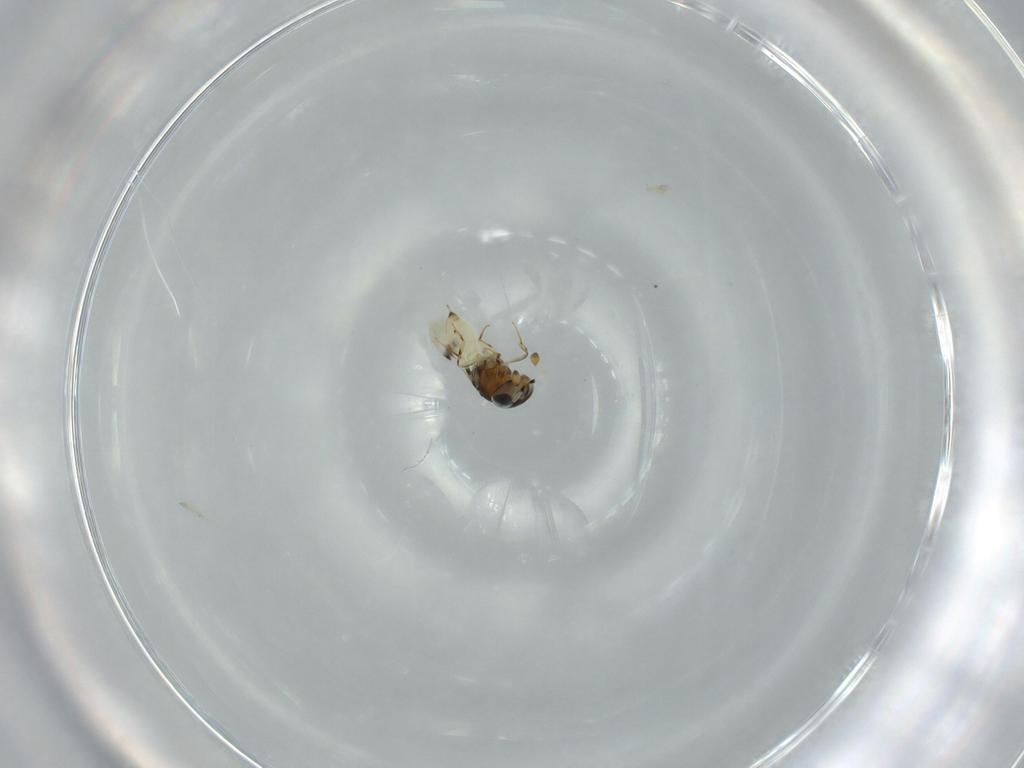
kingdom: Animalia
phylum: Arthropoda
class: Insecta
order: Hymenoptera
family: Scelionidae
